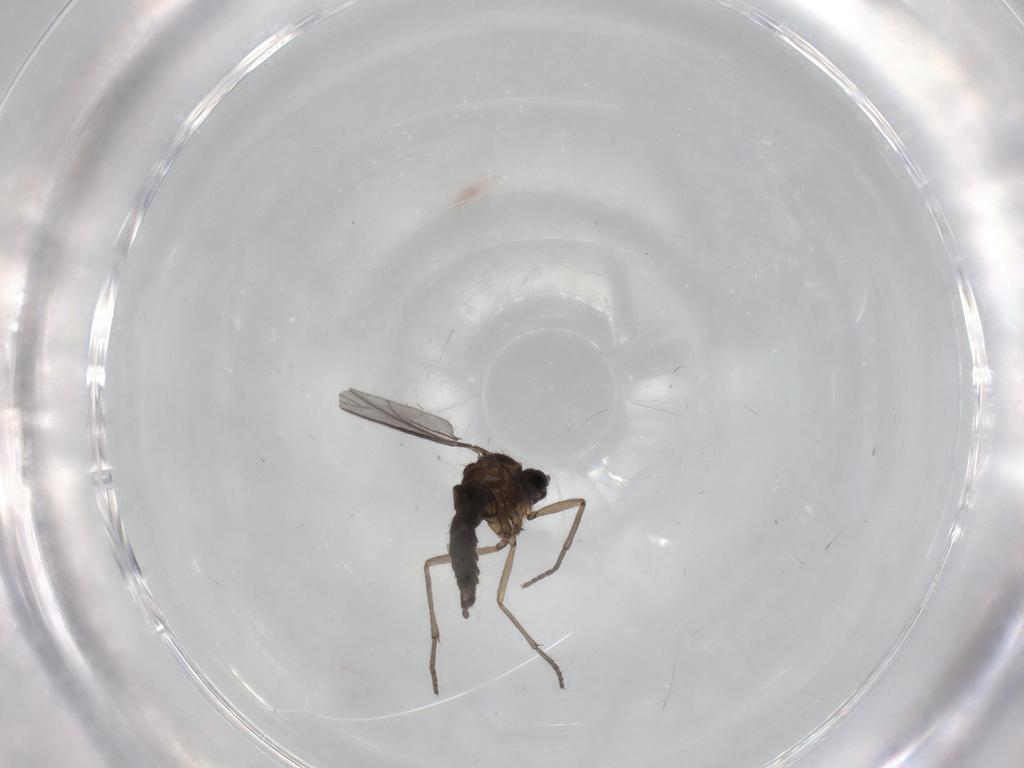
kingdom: Animalia
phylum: Arthropoda
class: Insecta
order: Diptera
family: Sciaridae
